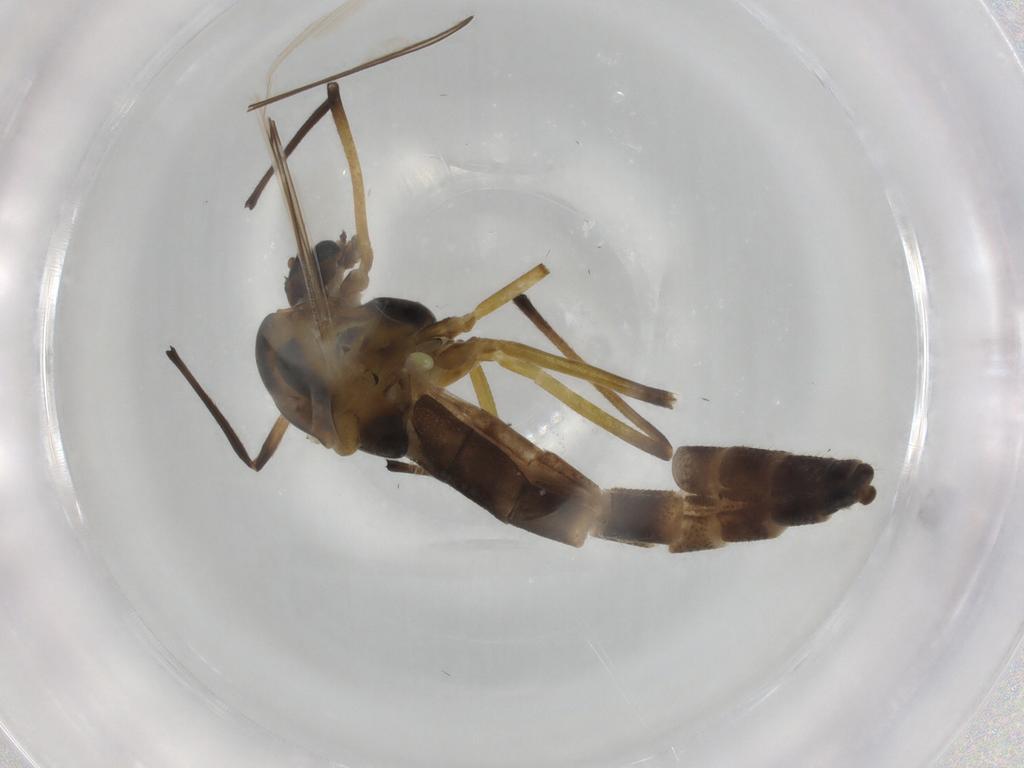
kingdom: Animalia
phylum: Arthropoda
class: Insecta
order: Diptera
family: Chironomidae
